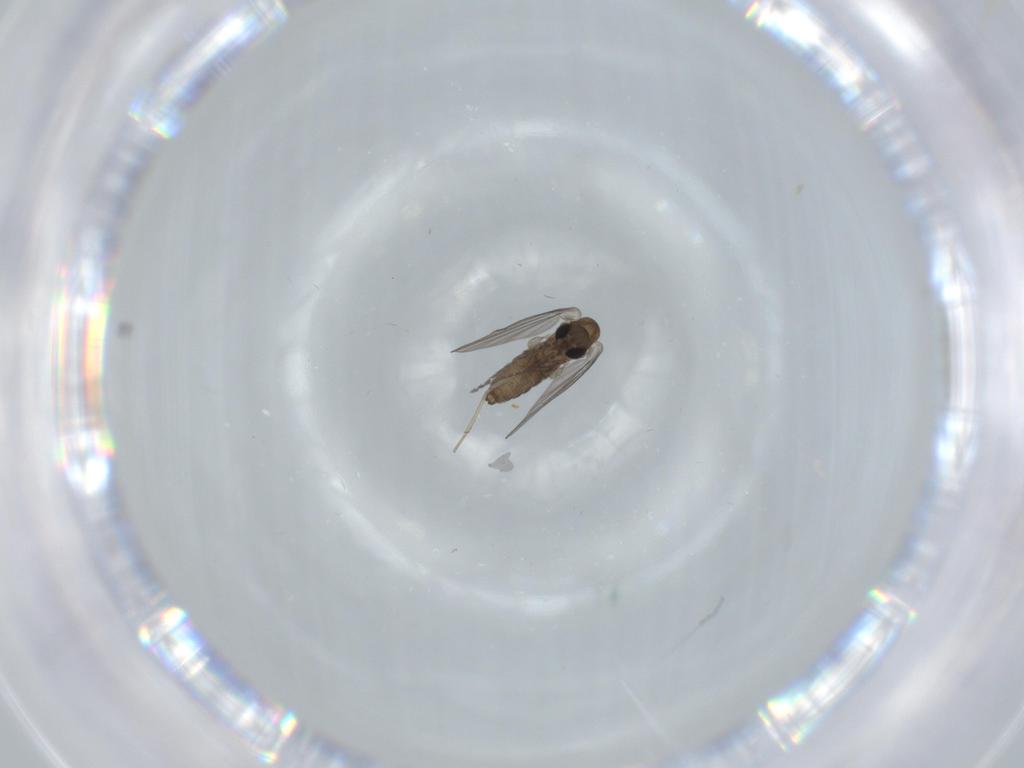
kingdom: Animalia
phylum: Arthropoda
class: Insecta
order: Diptera
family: Psychodidae
